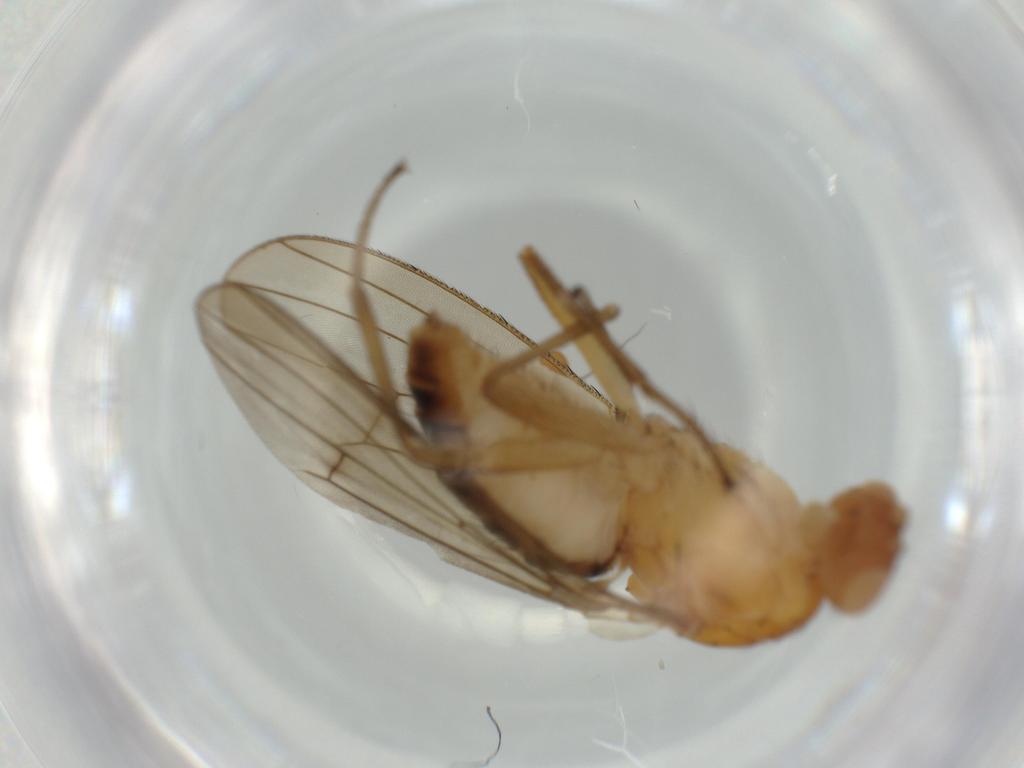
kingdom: Animalia
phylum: Arthropoda
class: Insecta
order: Diptera
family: Heleomyzidae
